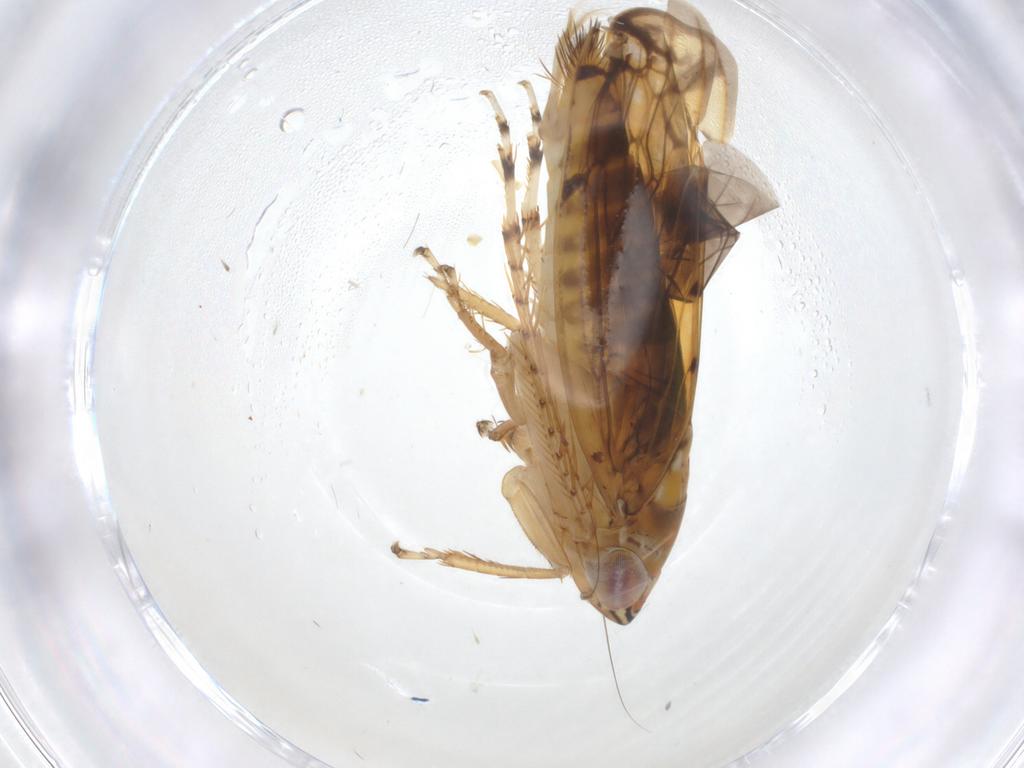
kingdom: Animalia
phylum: Arthropoda
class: Insecta
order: Hemiptera
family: Cicadellidae
